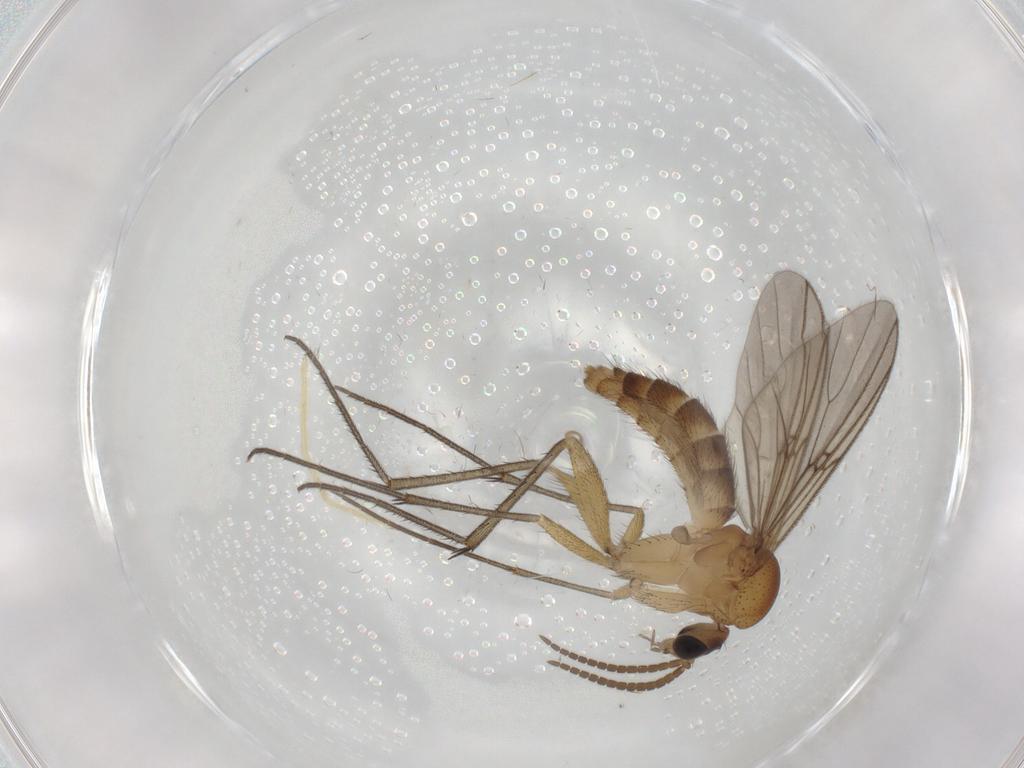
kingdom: Animalia
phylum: Arthropoda
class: Insecta
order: Diptera
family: Mycetophilidae
